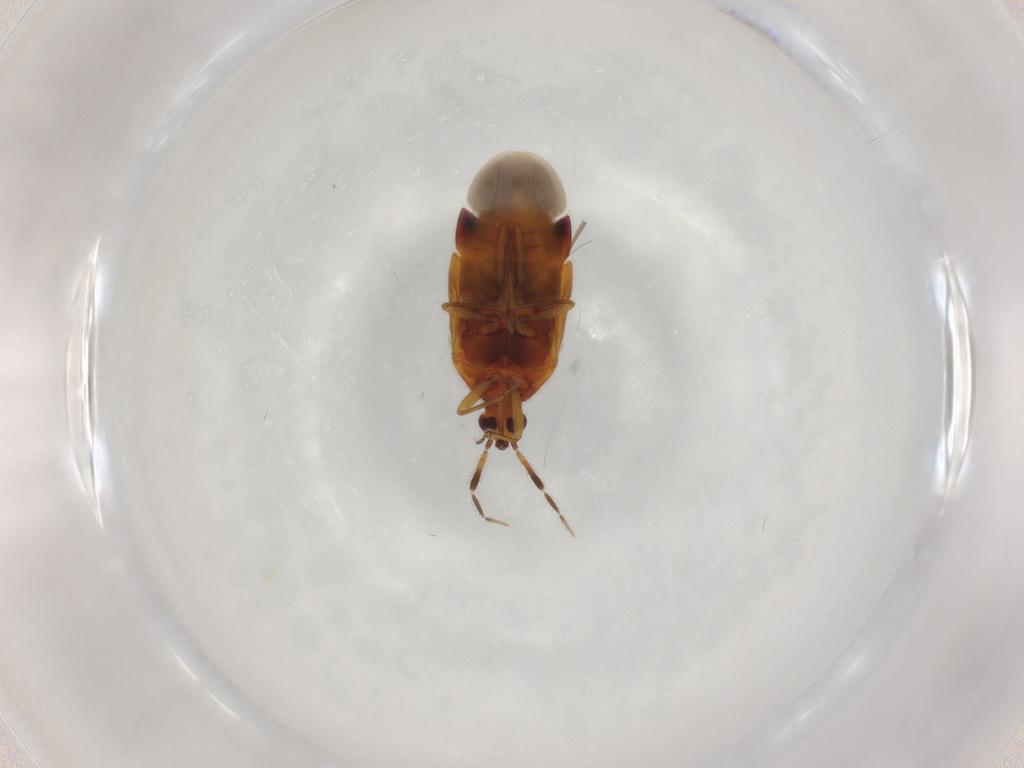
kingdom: Animalia
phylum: Arthropoda
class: Insecta
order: Hemiptera
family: Anthocoridae
